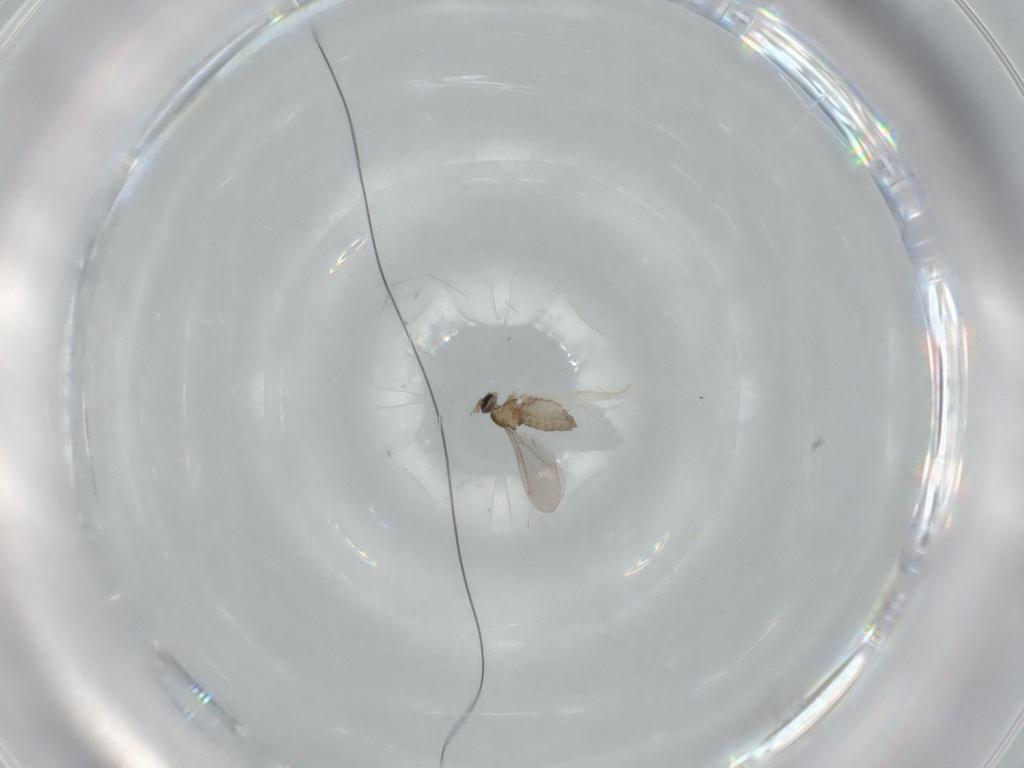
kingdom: Animalia
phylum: Arthropoda
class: Insecta
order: Diptera
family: Cecidomyiidae
